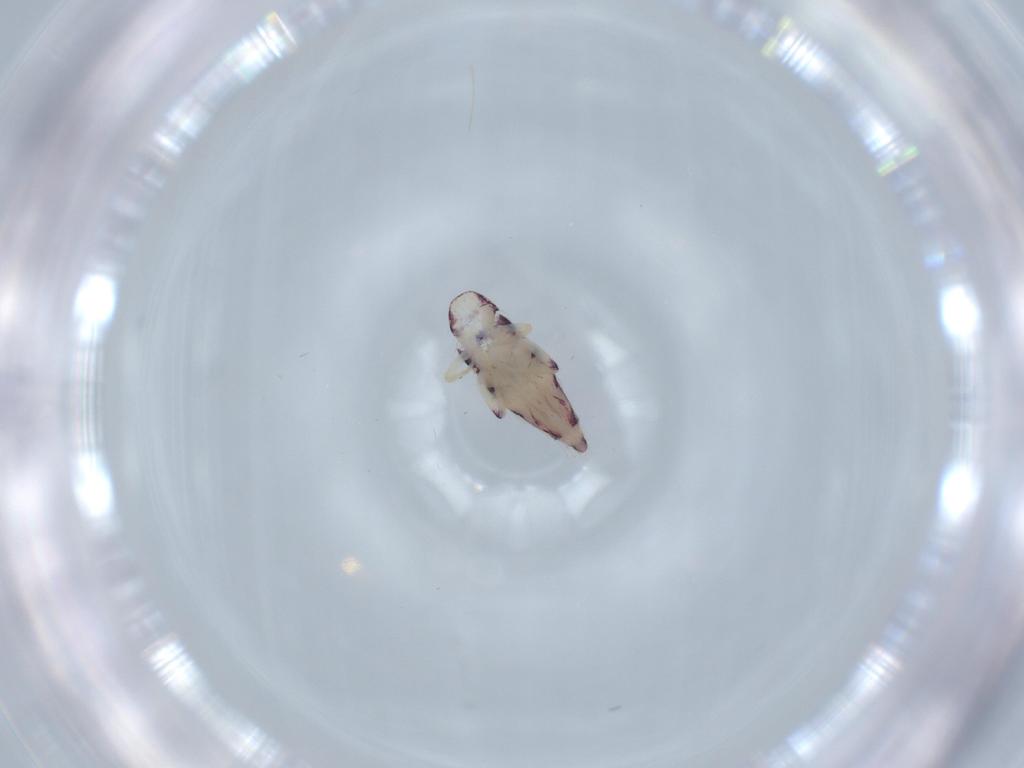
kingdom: Animalia
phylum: Arthropoda
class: Collembola
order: Entomobryomorpha
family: Entomobryidae
